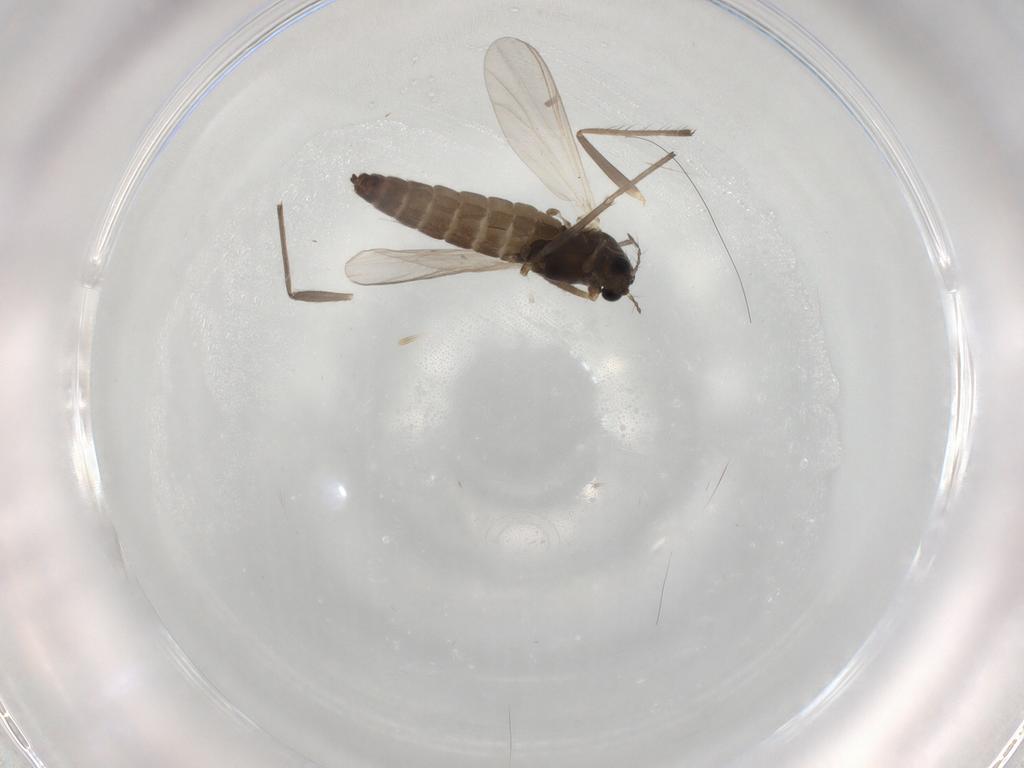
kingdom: Animalia
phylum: Arthropoda
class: Insecta
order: Diptera
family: Chironomidae
